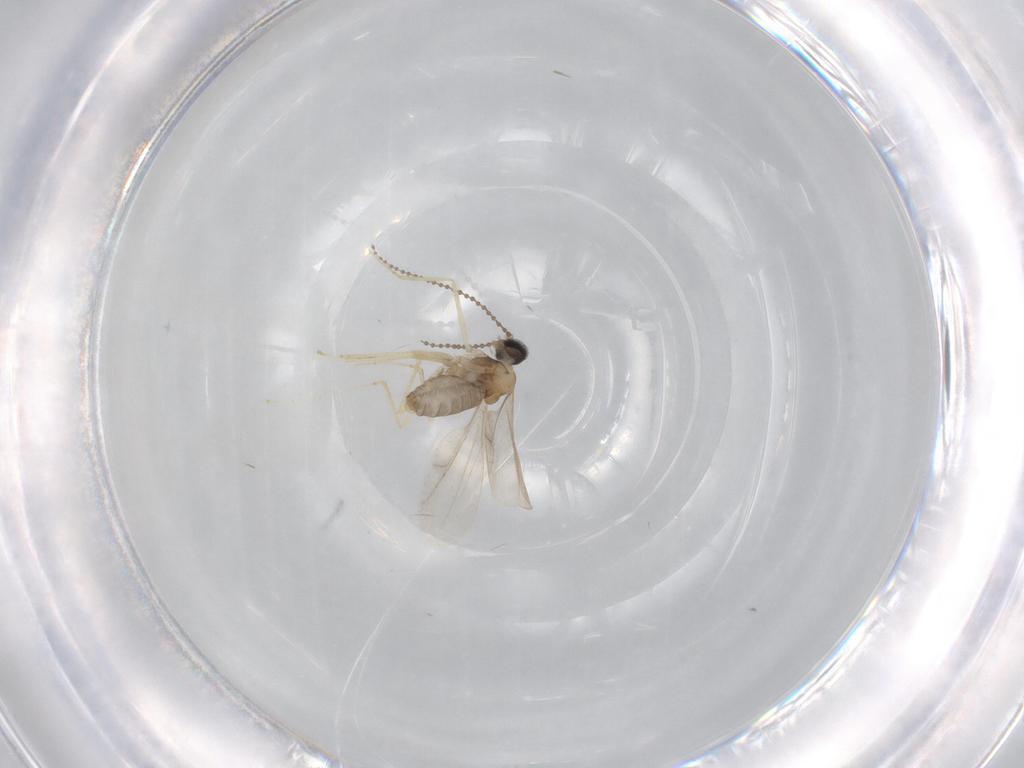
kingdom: Animalia
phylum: Arthropoda
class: Insecta
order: Diptera
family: Cecidomyiidae
